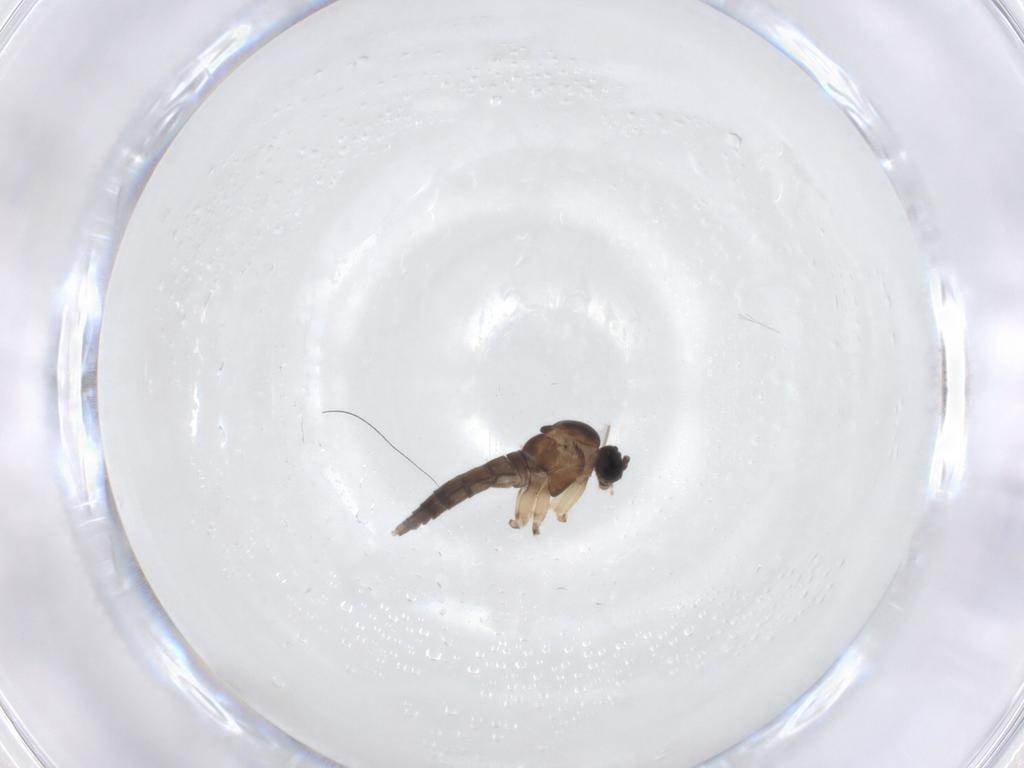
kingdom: Animalia
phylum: Arthropoda
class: Insecta
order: Diptera
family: Sciaridae
